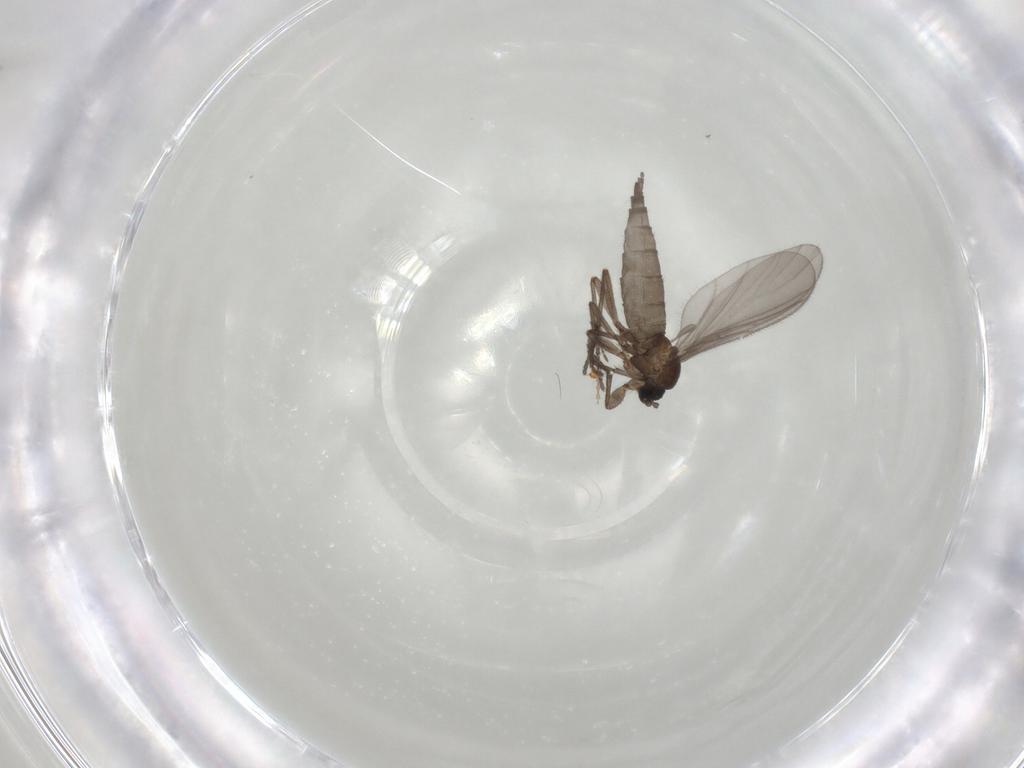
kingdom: Animalia
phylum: Arthropoda
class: Insecta
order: Diptera
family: Sciaridae
